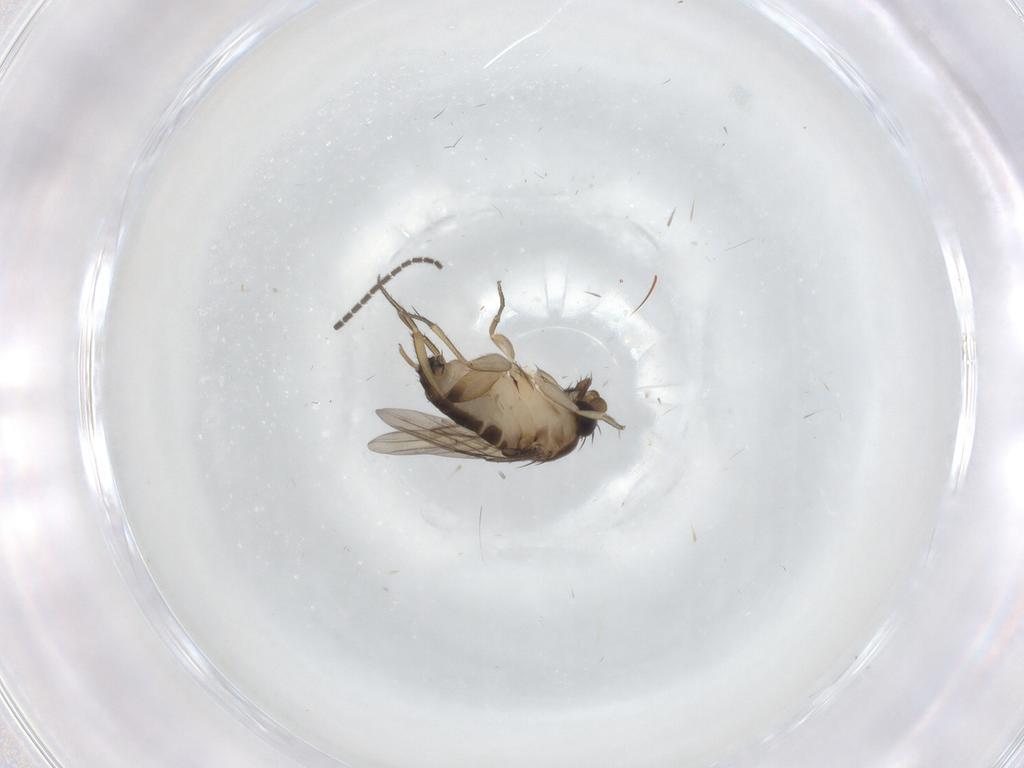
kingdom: Animalia
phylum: Arthropoda
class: Insecta
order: Diptera
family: Sciaridae
